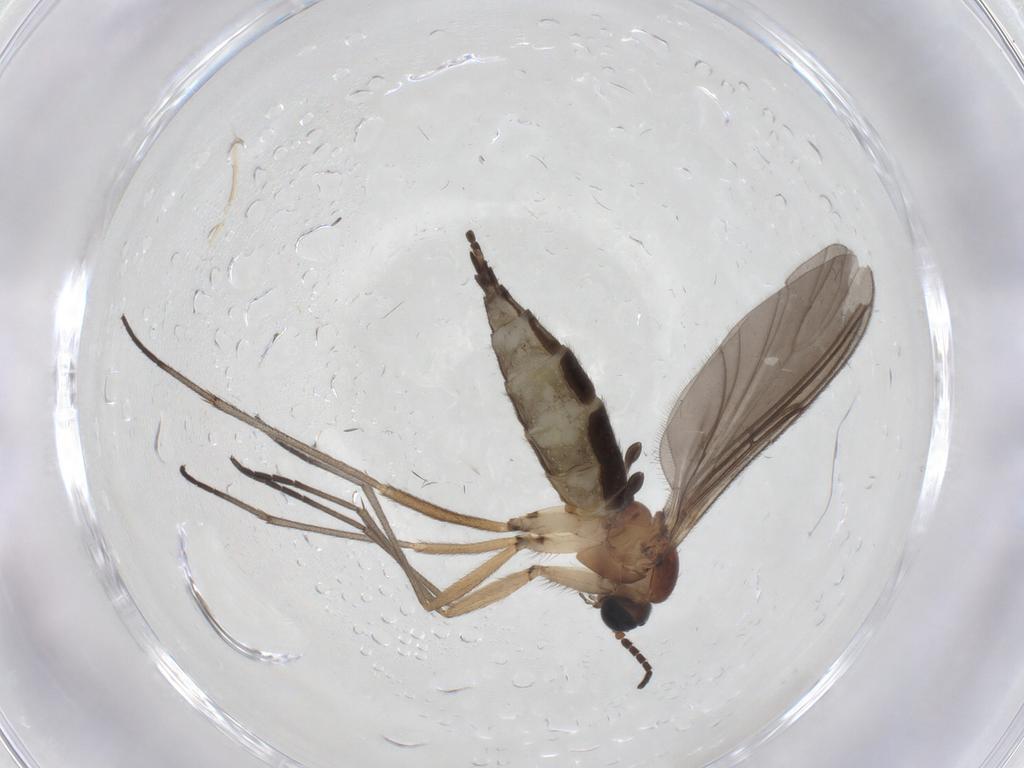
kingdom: Animalia
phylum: Arthropoda
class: Insecta
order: Diptera
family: Sciaridae
